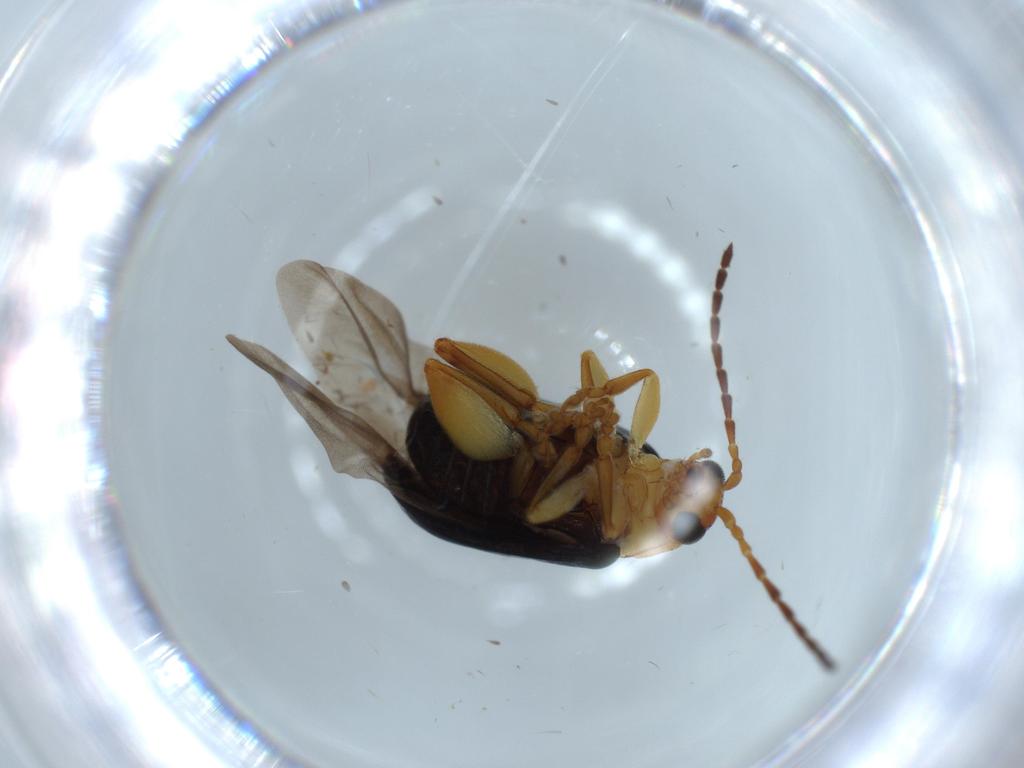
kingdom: Animalia
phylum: Arthropoda
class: Insecta
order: Coleoptera
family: Chrysomelidae
